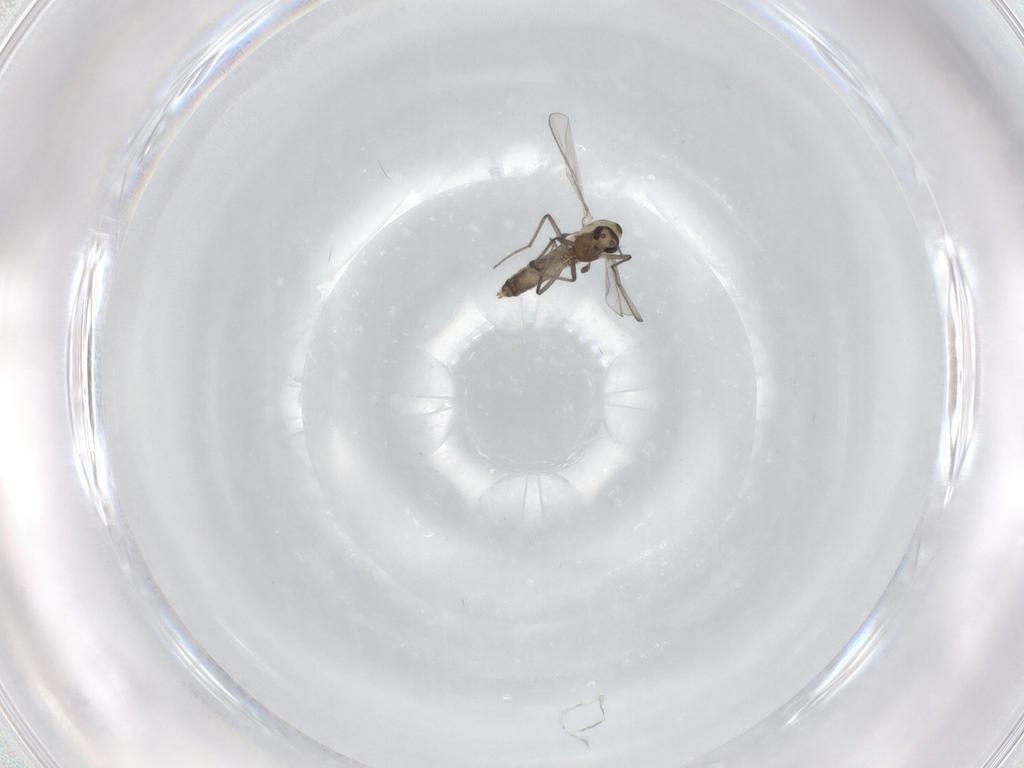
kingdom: Animalia
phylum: Arthropoda
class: Insecta
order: Diptera
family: Chironomidae
